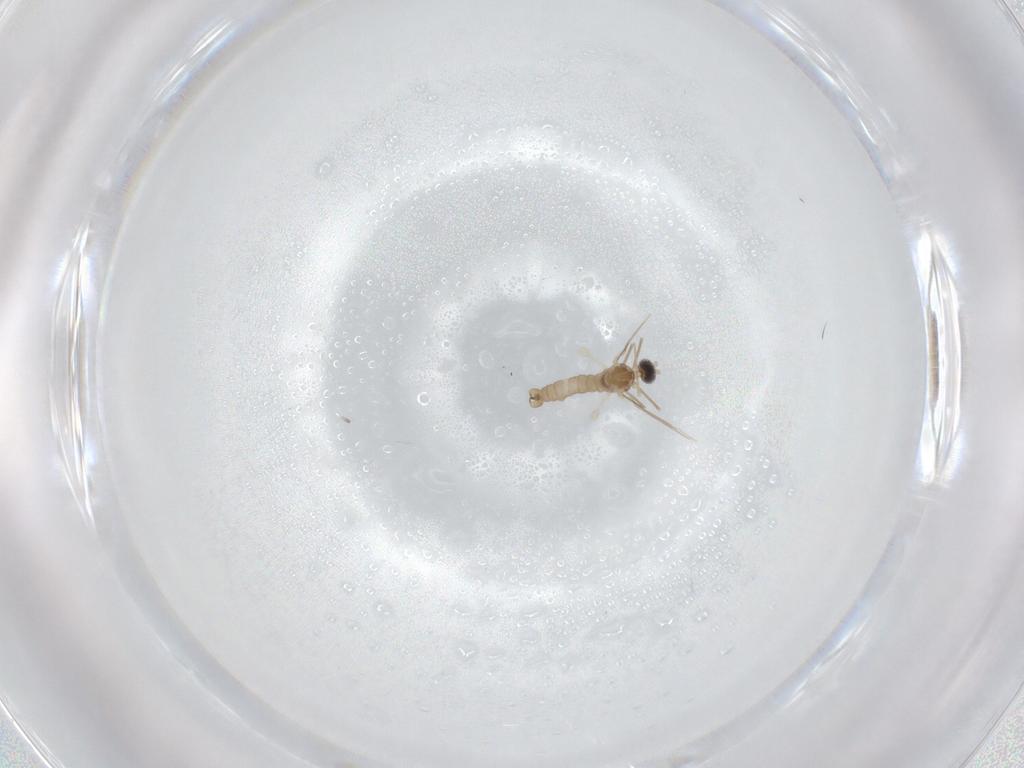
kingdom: Animalia
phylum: Arthropoda
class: Insecta
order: Diptera
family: Cecidomyiidae
